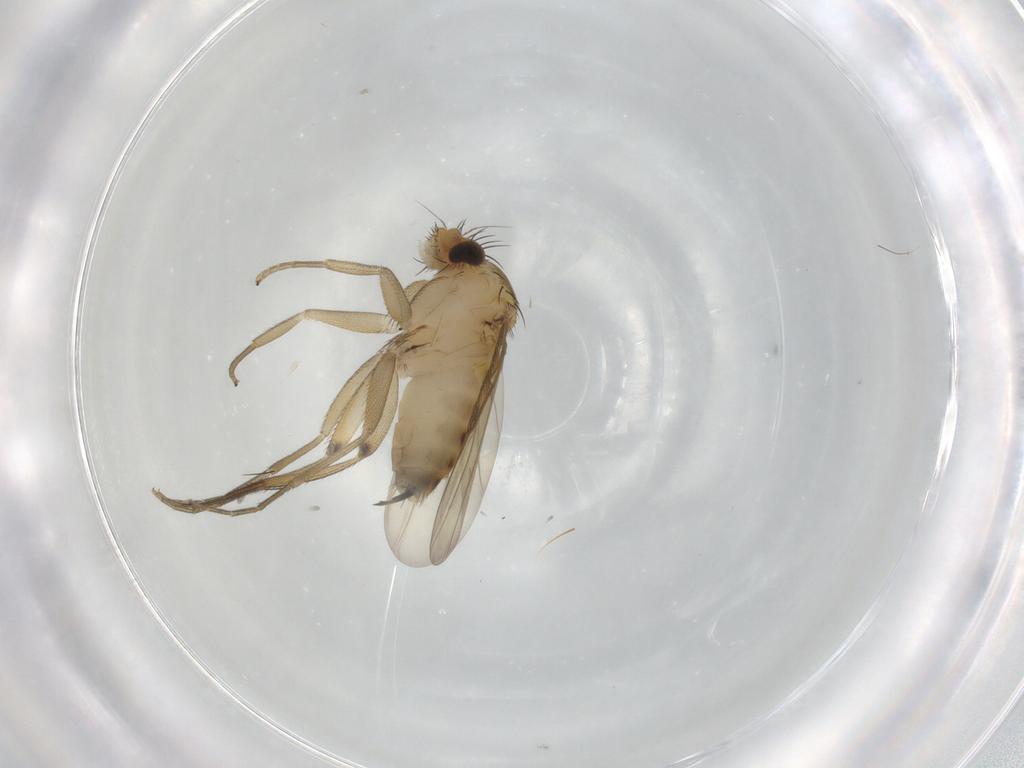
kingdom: Animalia
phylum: Arthropoda
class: Insecta
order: Diptera
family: Phoridae
